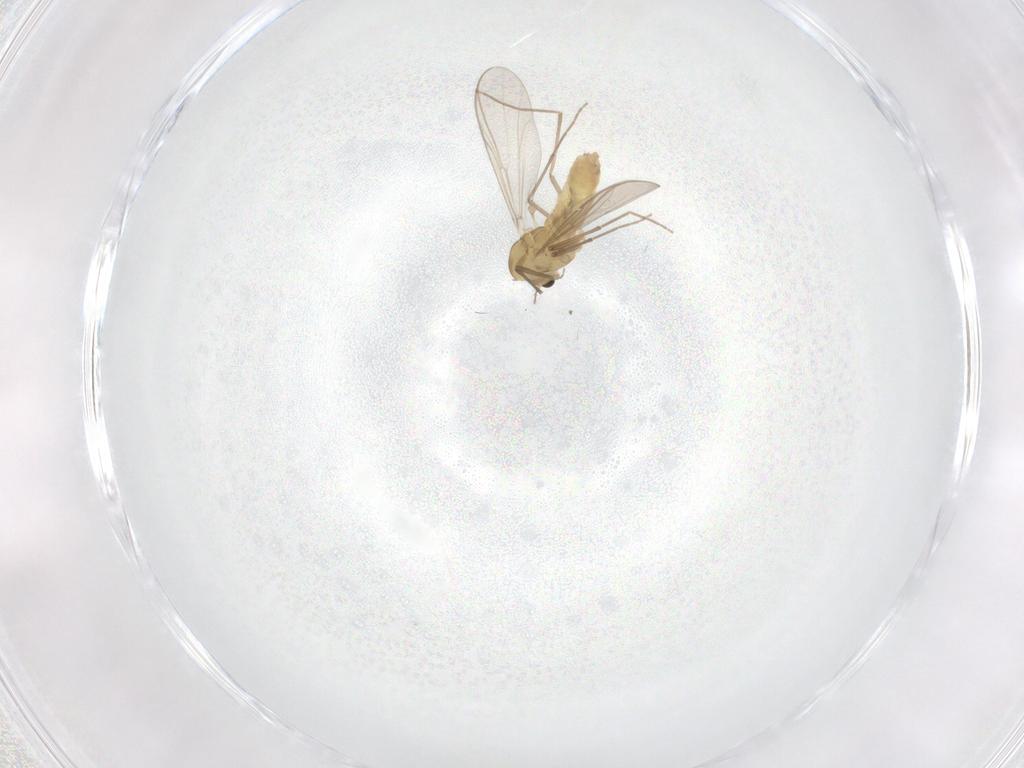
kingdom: Animalia
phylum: Arthropoda
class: Insecta
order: Diptera
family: Chironomidae
